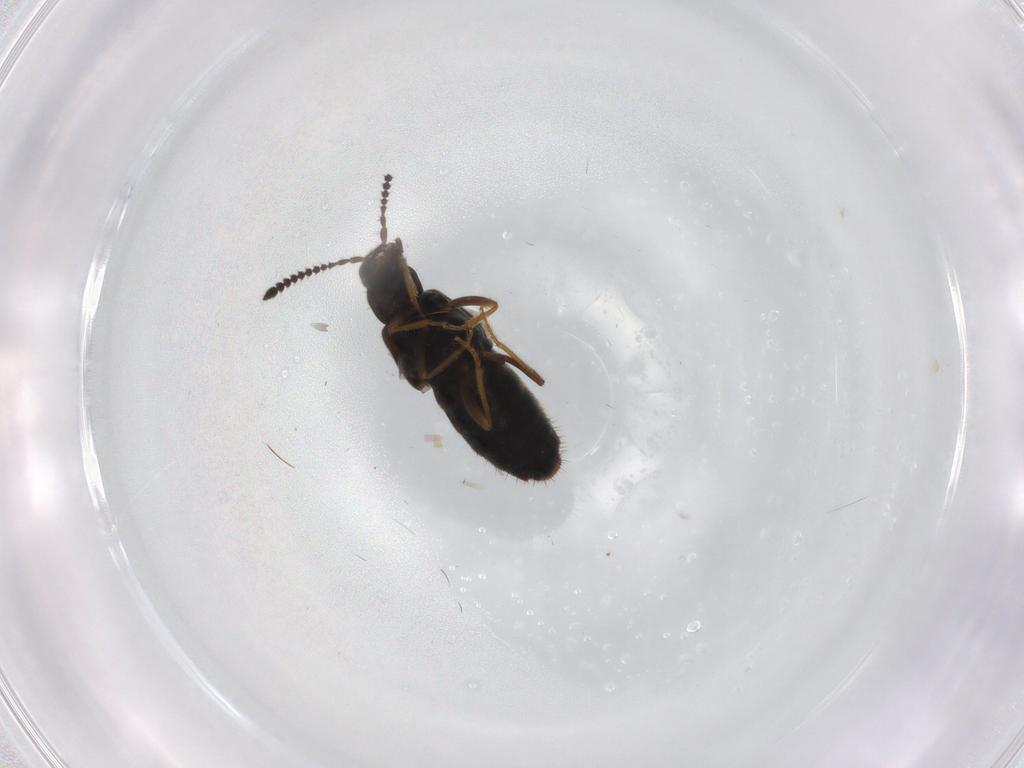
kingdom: Animalia
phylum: Arthropoda
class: Insecta
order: Coleoptera
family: Staphylinidae
